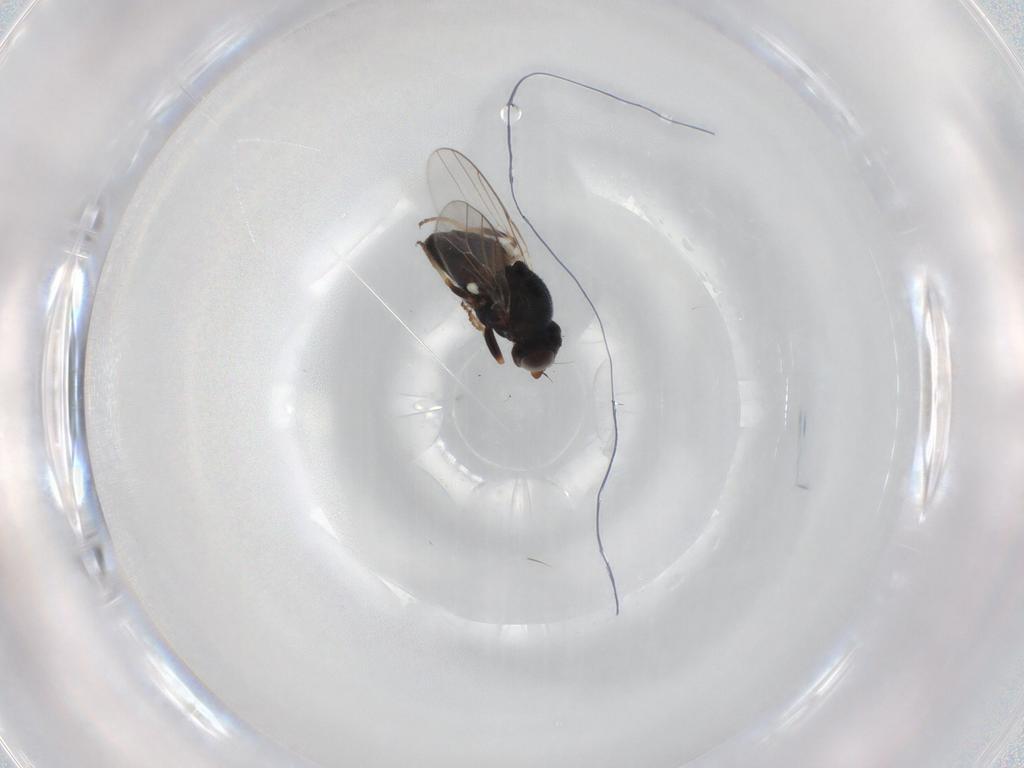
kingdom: Animalia
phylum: Arthropoda
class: Insecta
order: Diptera
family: Chloropidae
